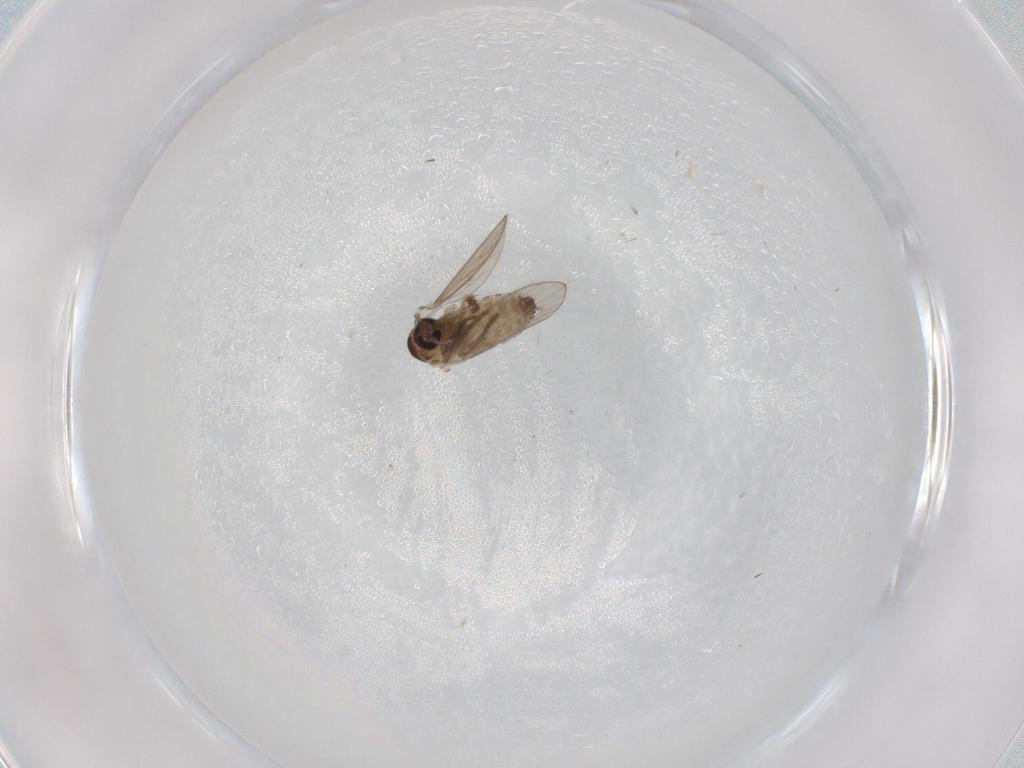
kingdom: Animalia
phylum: Arthropoda
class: Insecta
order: Diptera
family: Psychodidae
